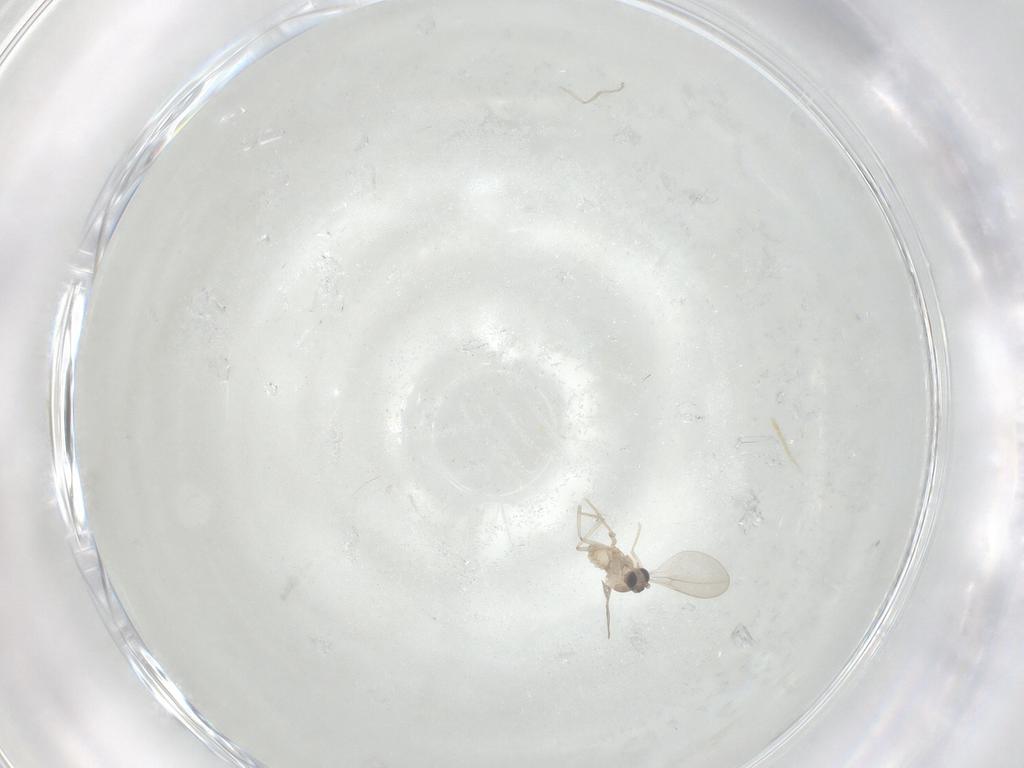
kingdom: Animalia
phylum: Arthropoda
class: Insecta
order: Diptera
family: Cecidomyiidae
